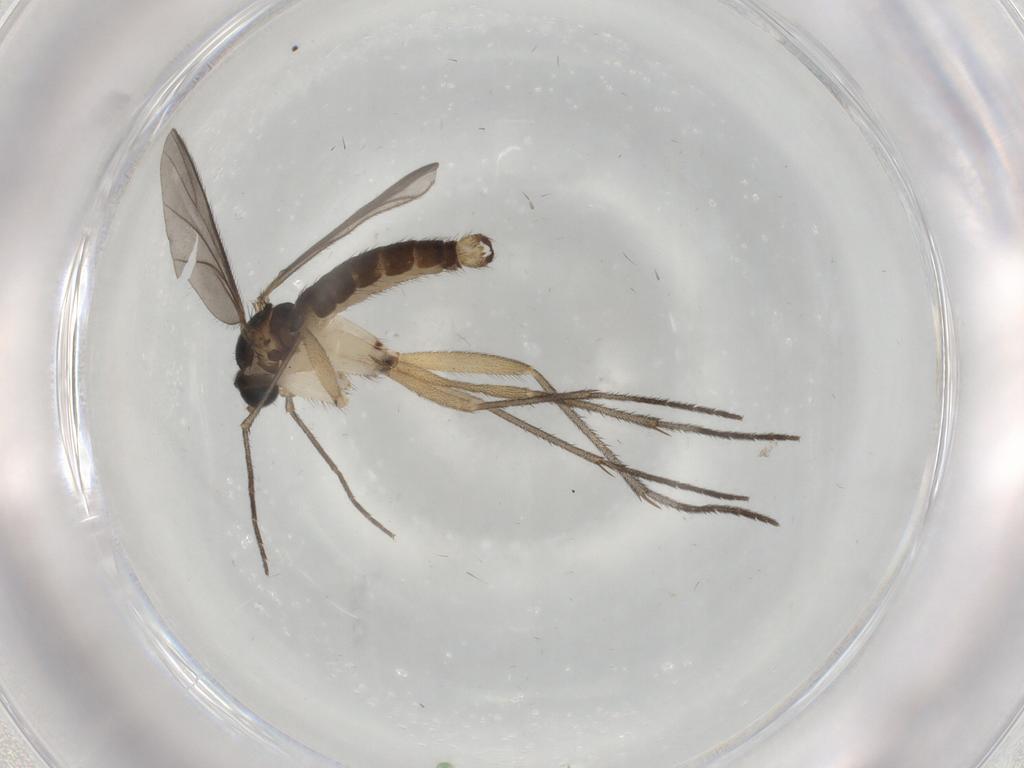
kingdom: Animalia
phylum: Arthropoda
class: Insecta
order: Diptera
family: Sciaridae
